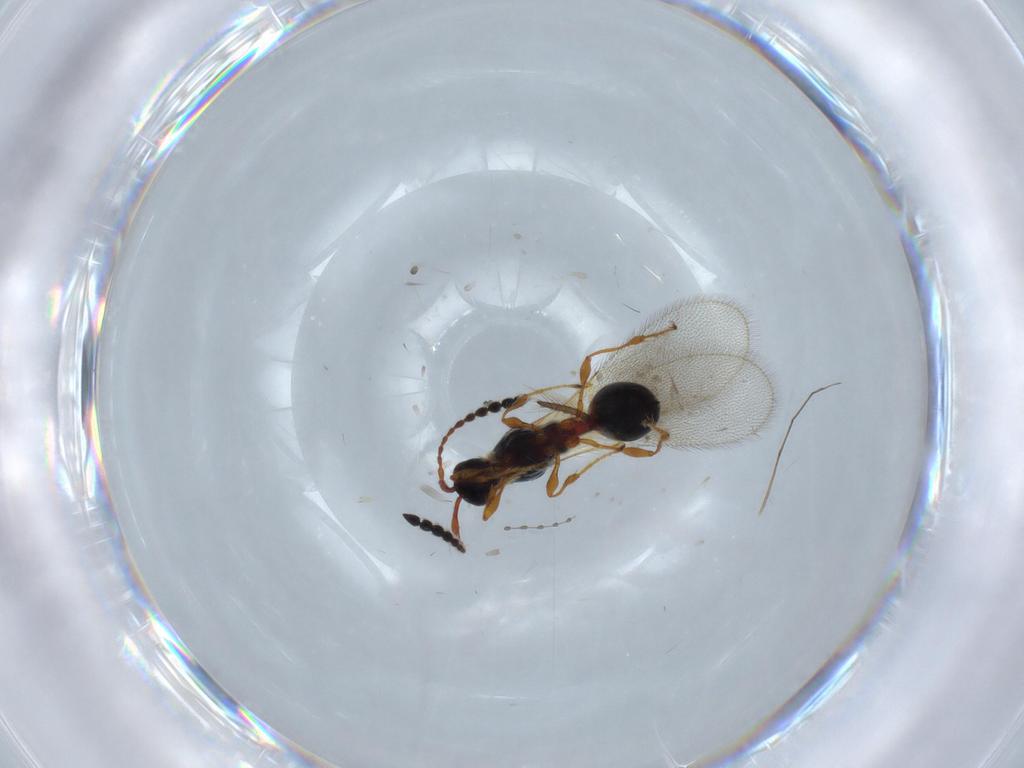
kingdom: Animalia
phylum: Arthropoda
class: Insecta
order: Hymenoptera
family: Diapriidae
